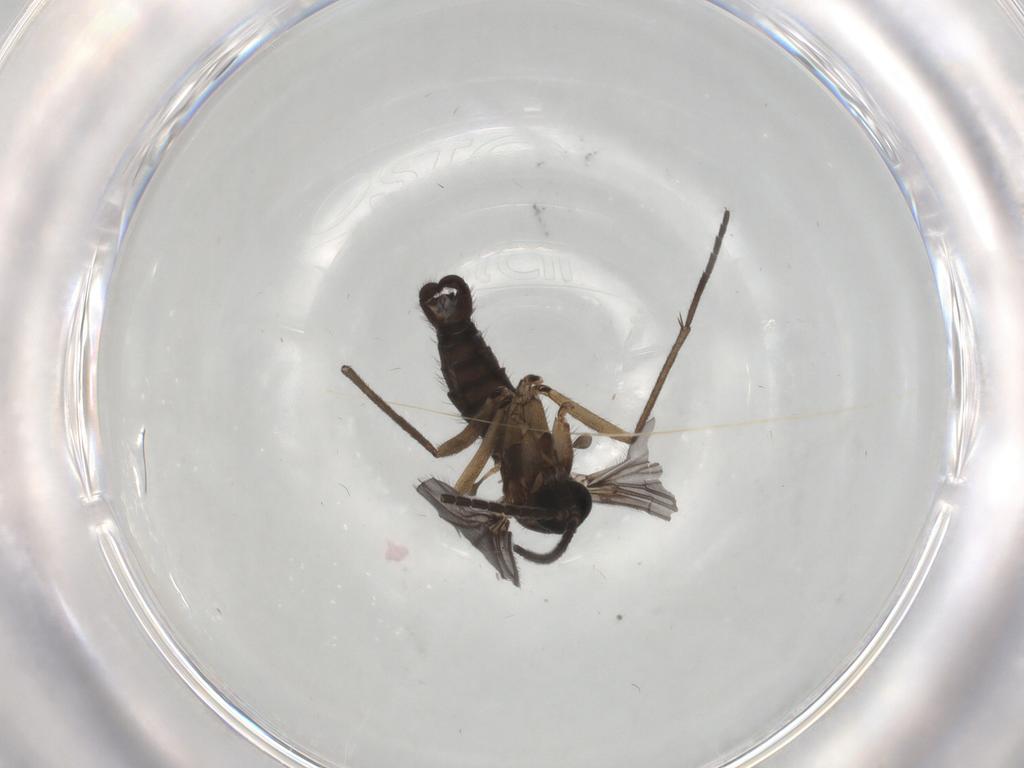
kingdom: Animalia
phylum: Arthropoda
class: Insecta
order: Diptera
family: Sciaridae
